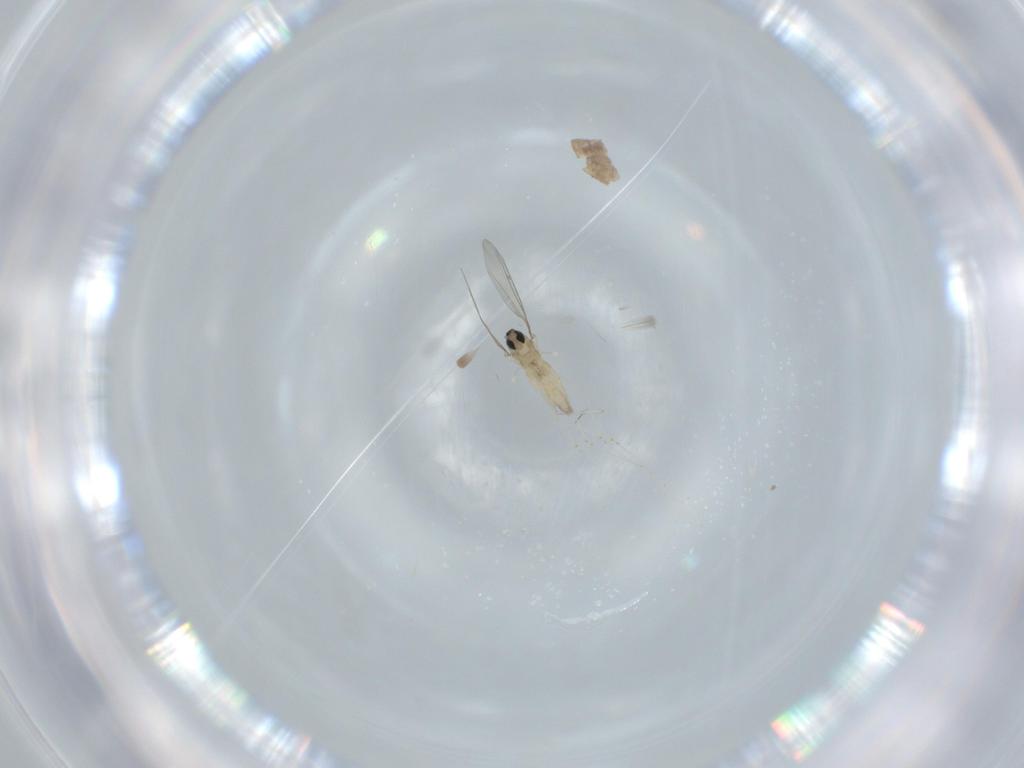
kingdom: Animalia
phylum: Arthropoda
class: Insecta
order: Diptera
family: Cecidomyiidae
